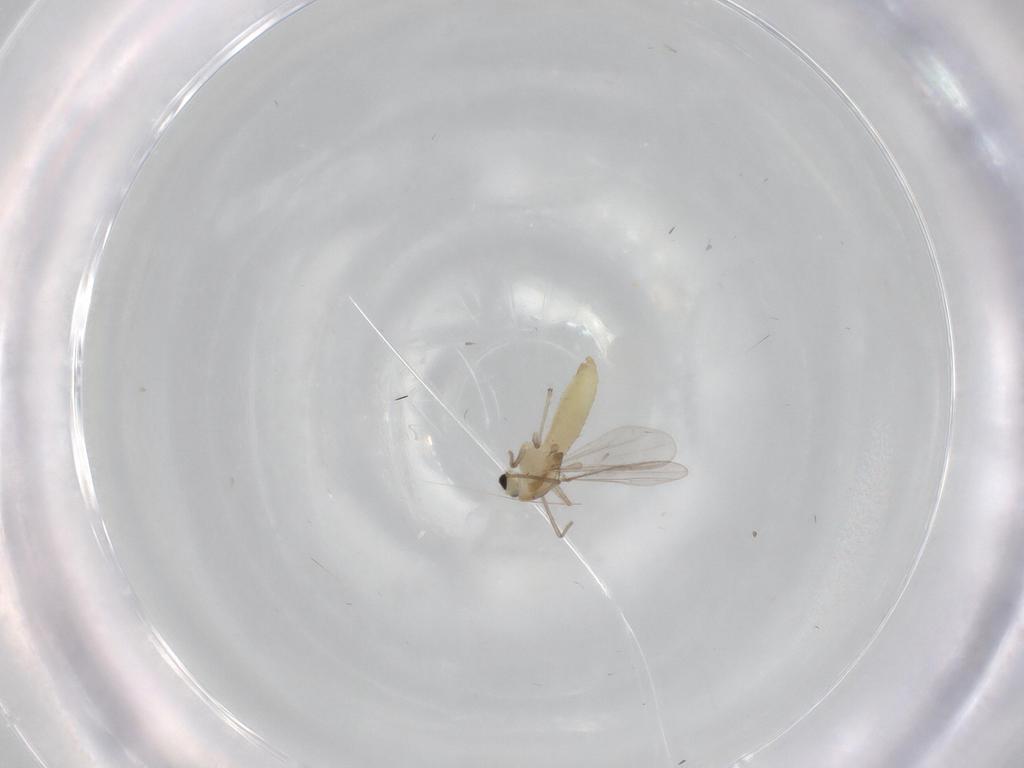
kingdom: Animalia
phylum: Arthropoda
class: Insecta
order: Diptera
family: Chironomidae
